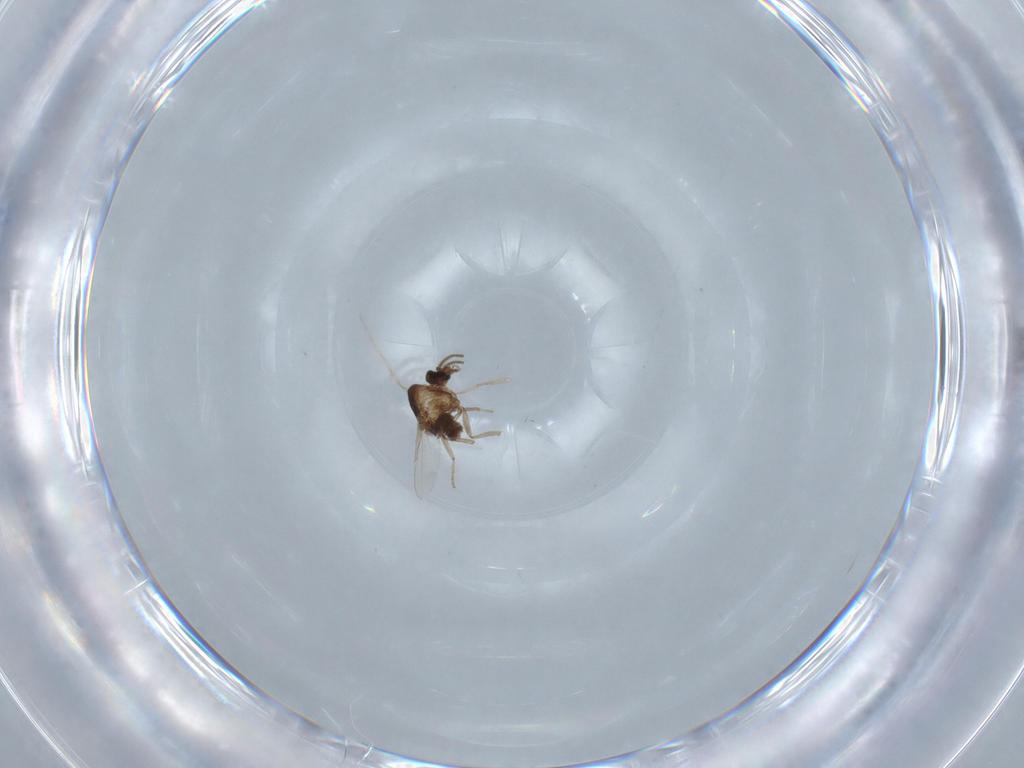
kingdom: Animalia
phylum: Arthropoda
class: Insecta
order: Diptera
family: Ceratopogonidae
